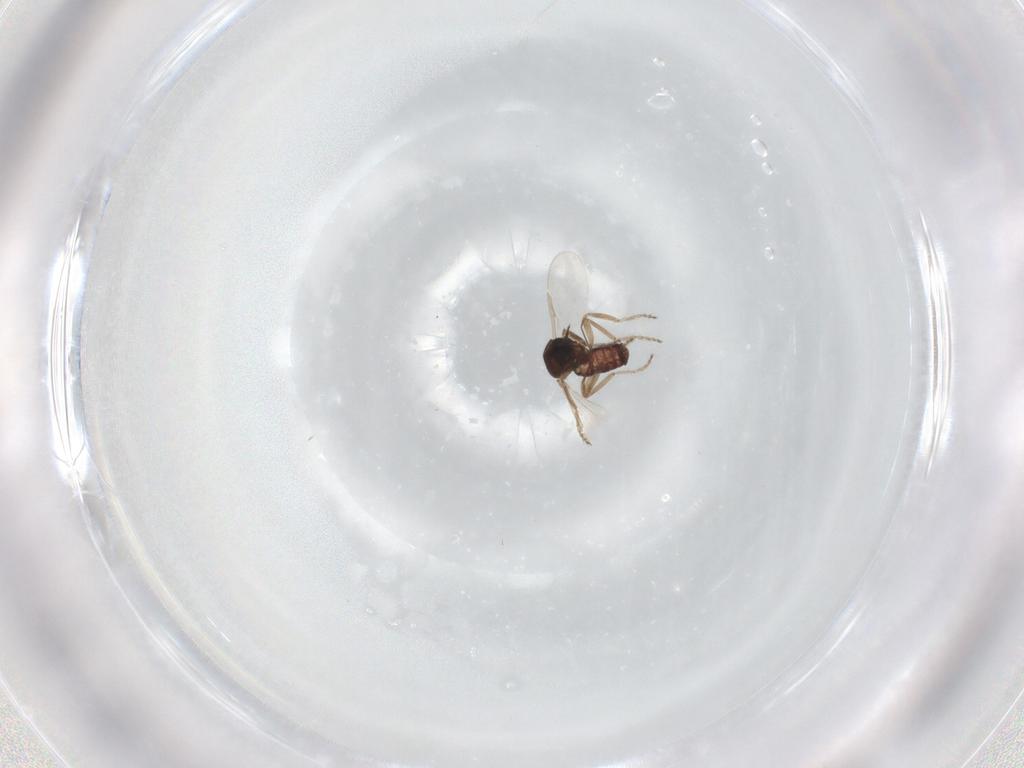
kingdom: Animalia
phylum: Arthropoda
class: Insecta
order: Diptera
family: Ceratopogonidae
